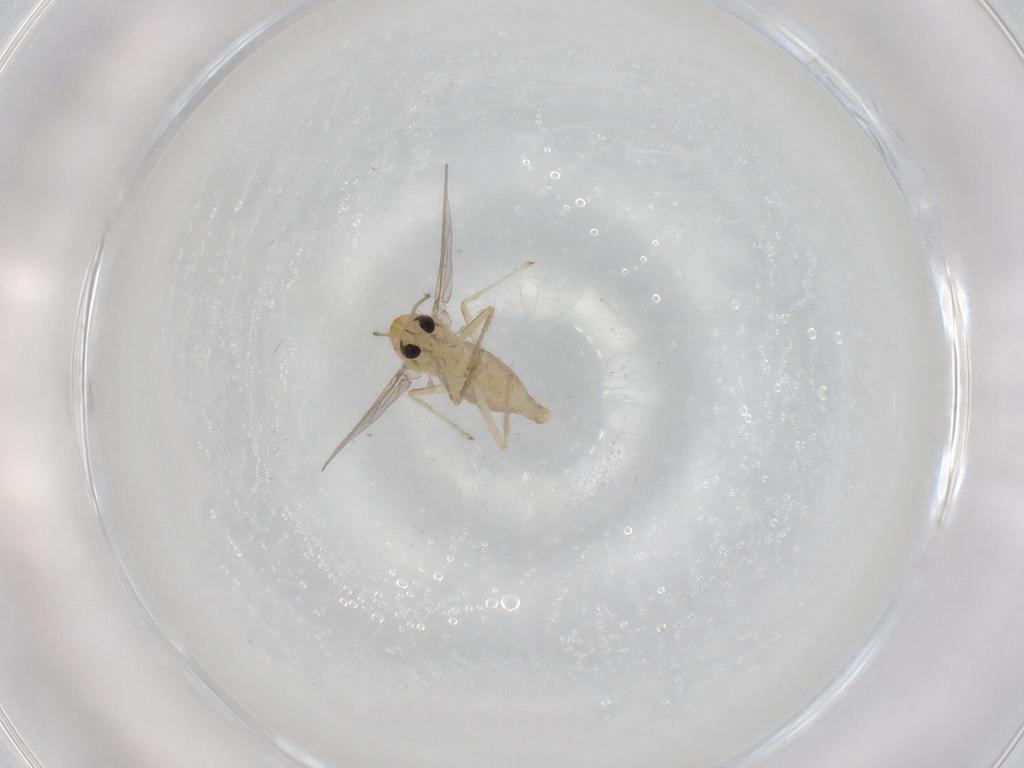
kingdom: Animalia
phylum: Arthropoda
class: Insecta
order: Diptera
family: Chironomidae
